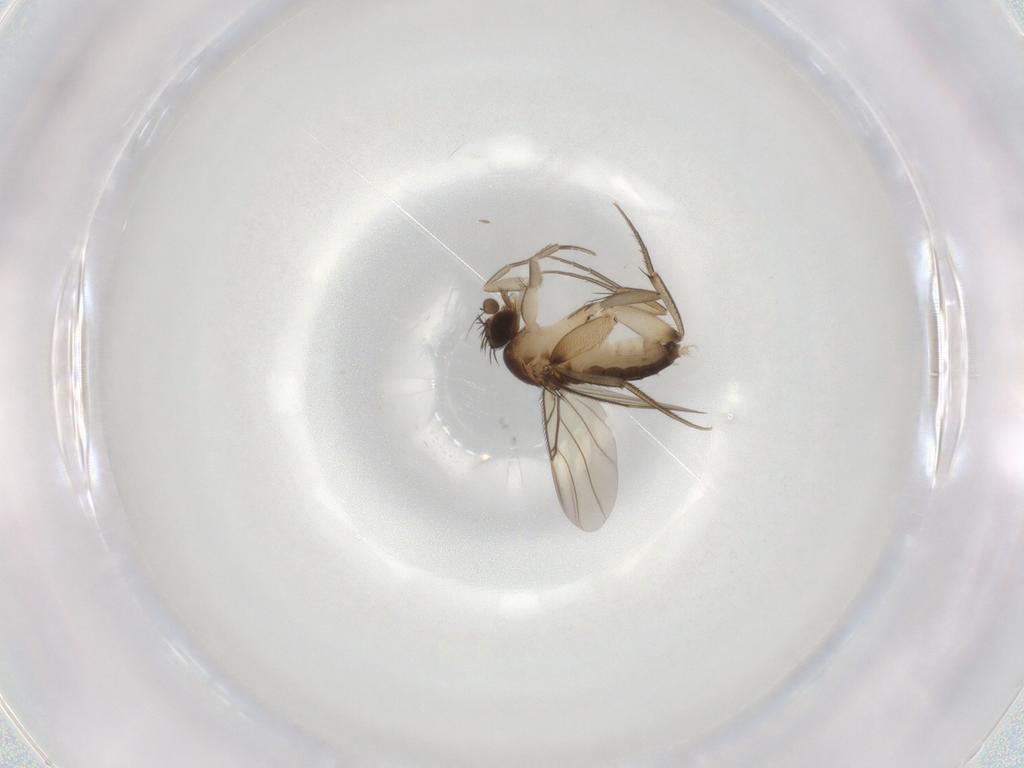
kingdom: Animalia
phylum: Arthropoda
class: Insecta
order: Diptera
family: Phoridae
